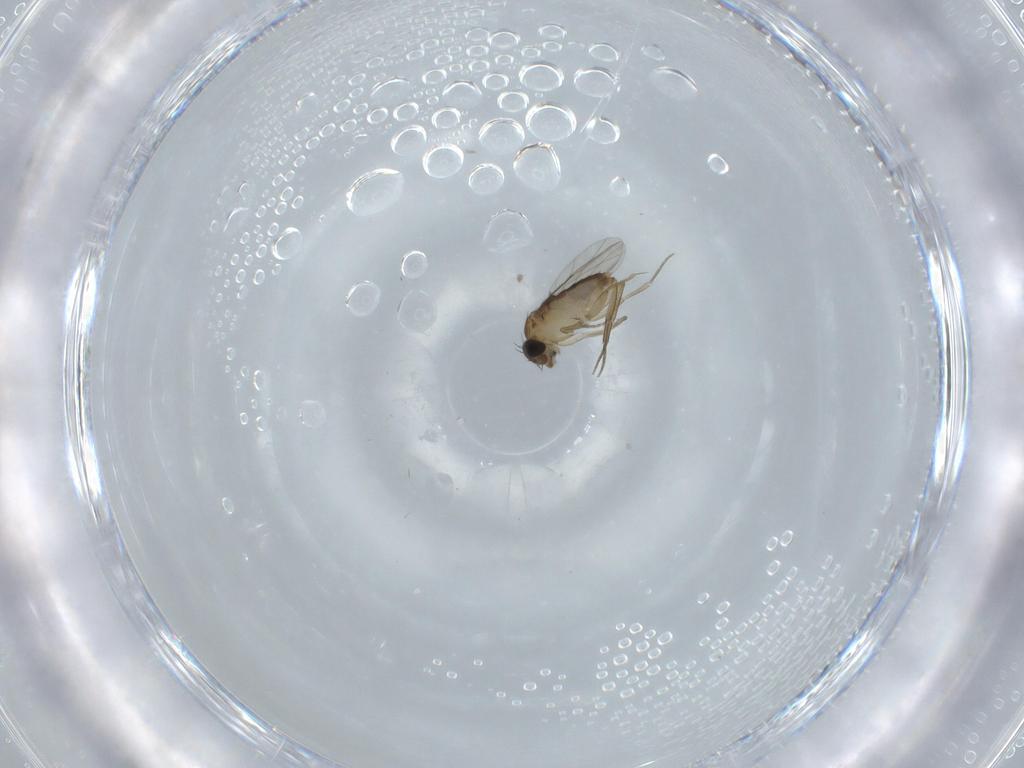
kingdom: Animalia
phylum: Arthropoda
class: Insecta
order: Diptera
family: Phoridae
